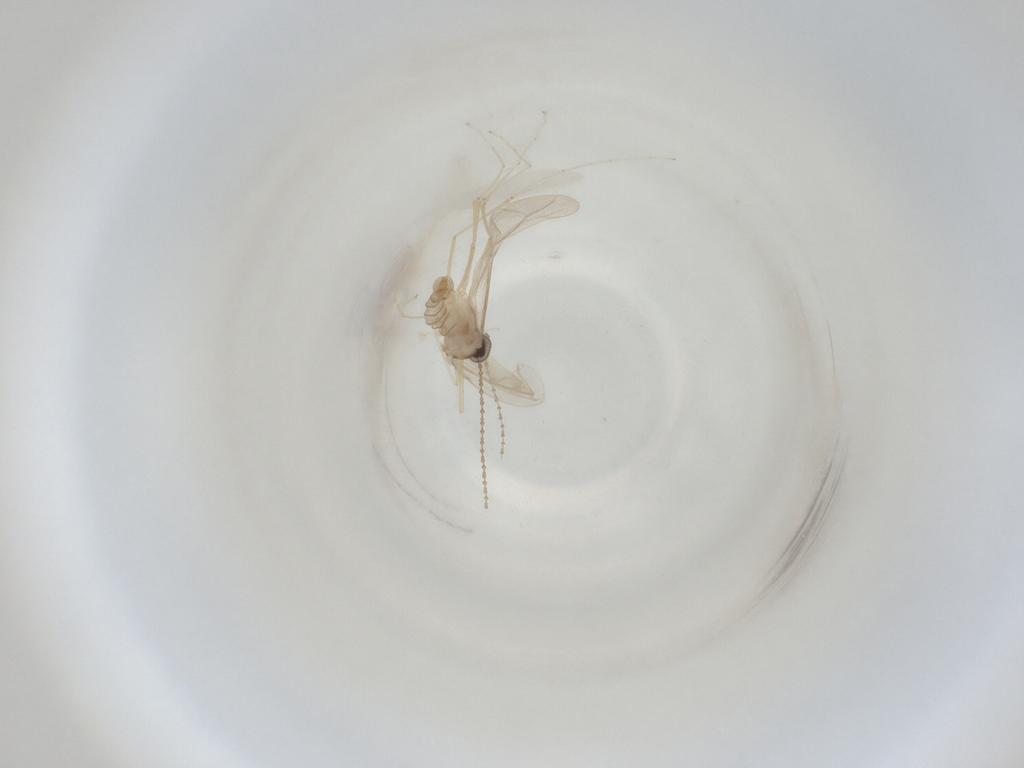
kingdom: Animalia
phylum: Arthropoda
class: Insecta
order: Diptera
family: Cecidomyiidae
